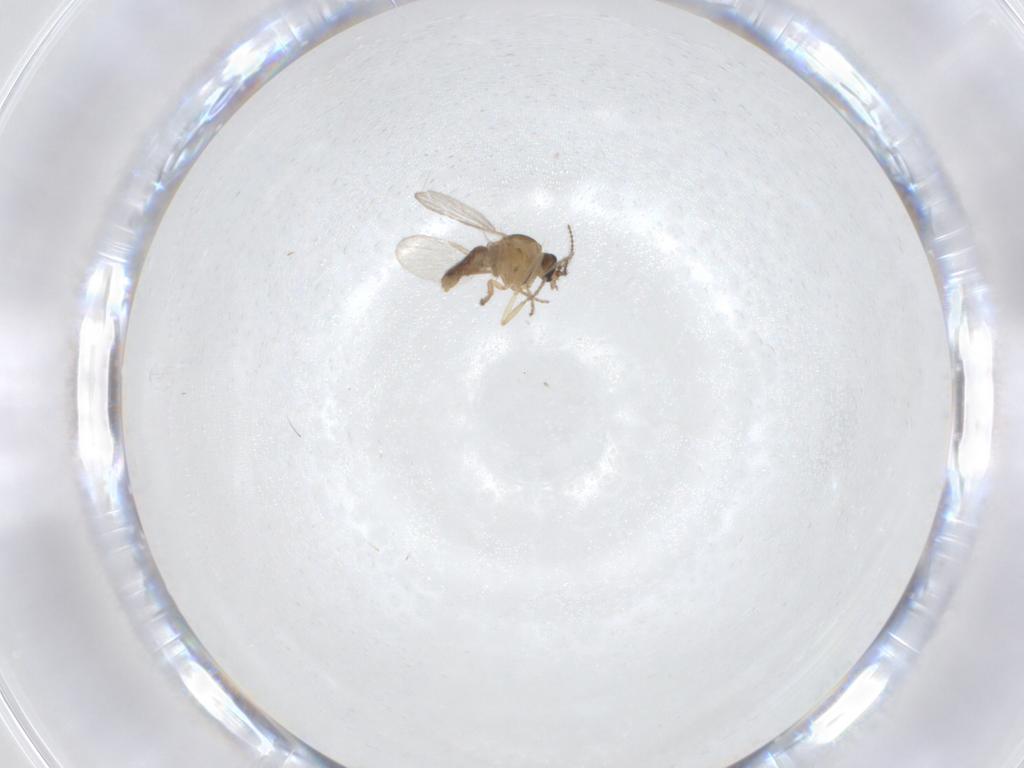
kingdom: Animalia
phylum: Arthropoda
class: Insecta
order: Diptera
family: Ceratopogonidae
